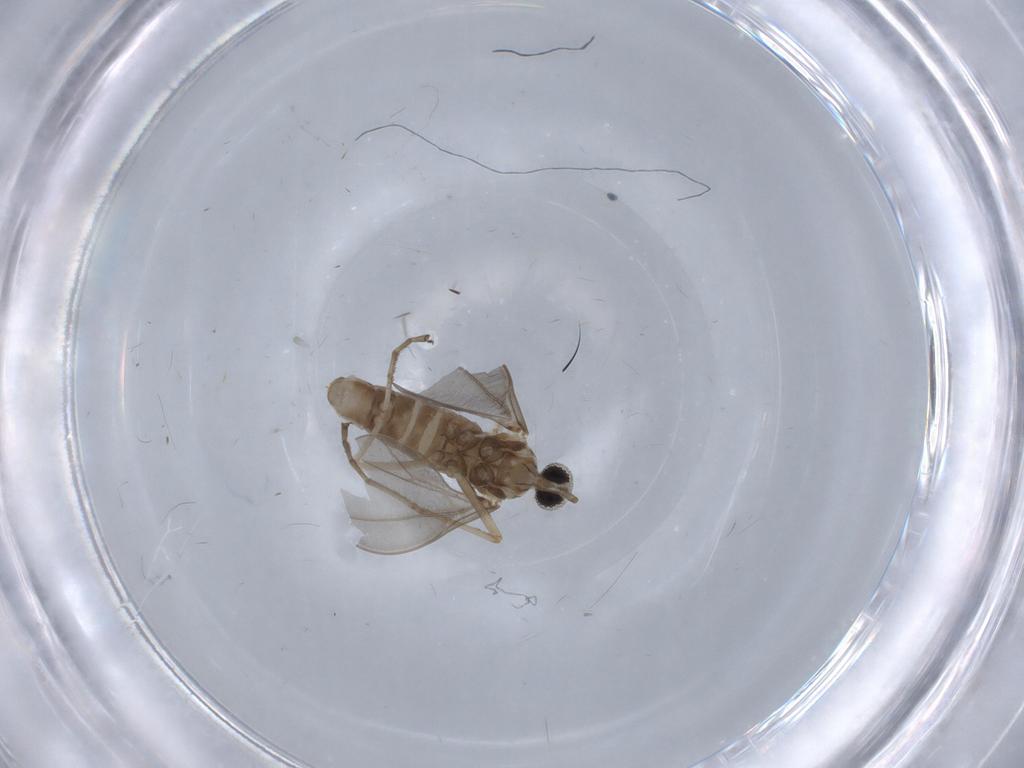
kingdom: Animalia
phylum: Arthropoda
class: Insecta
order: Diptera
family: Cecidomyiidae
